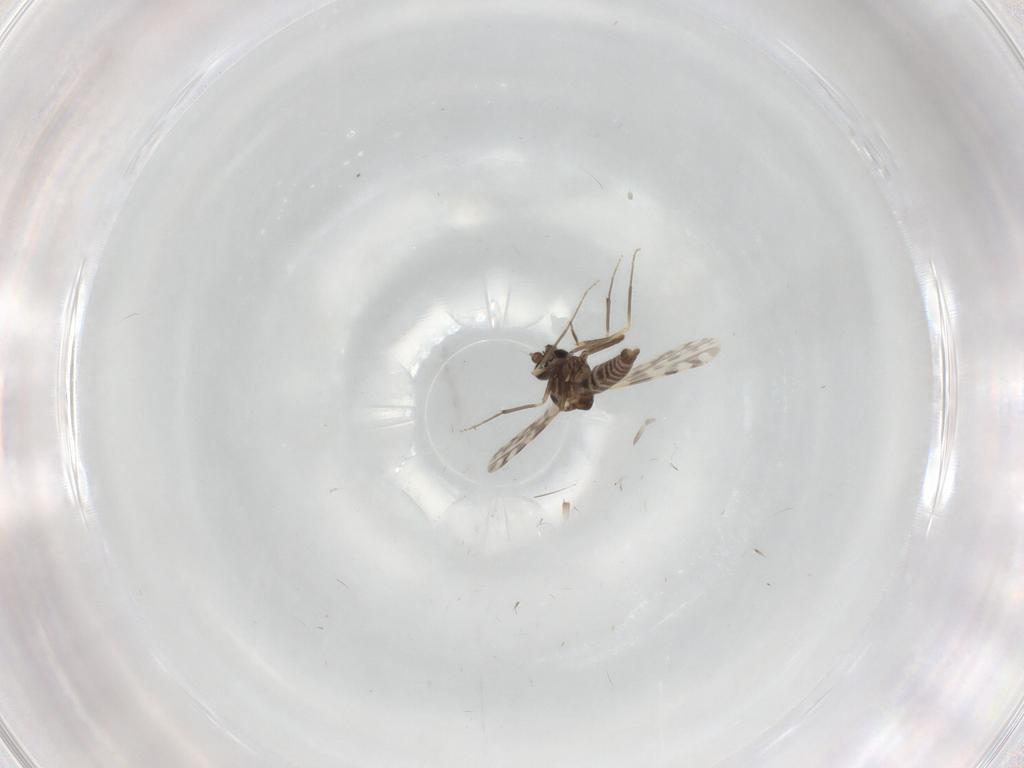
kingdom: Animalia
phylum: Arthropoda
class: Insecta
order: Diptera
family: Ceratopogonidae
